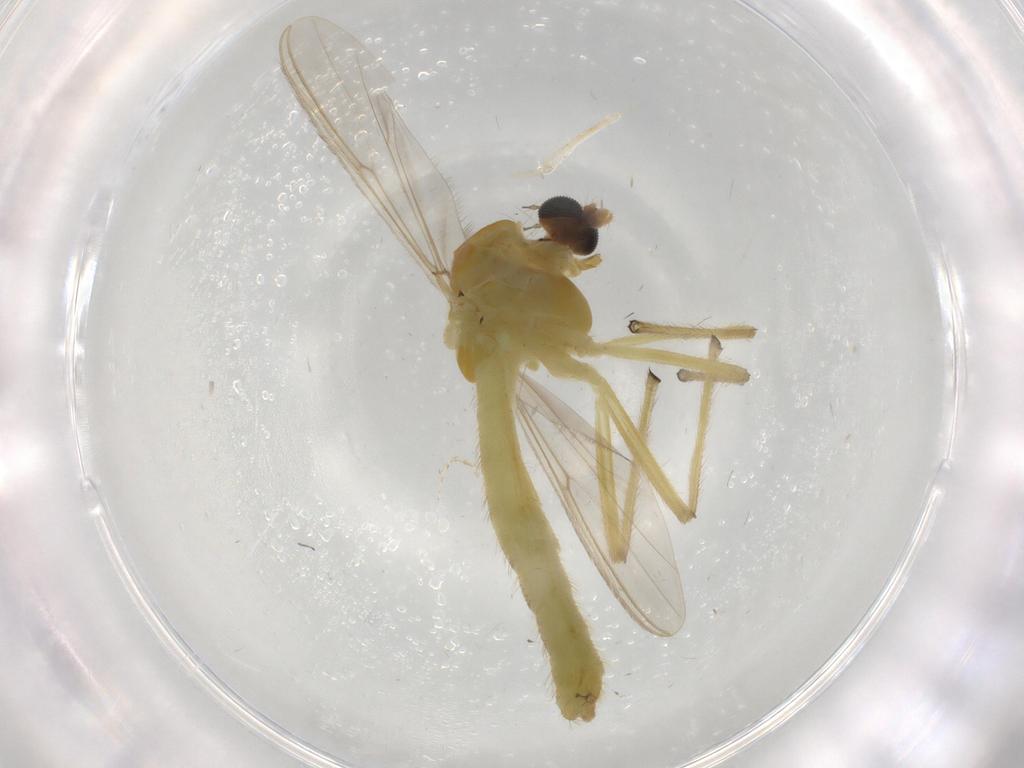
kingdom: Animalia
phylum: Arthropoda
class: Insecta
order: Diptera
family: Chironomidae
